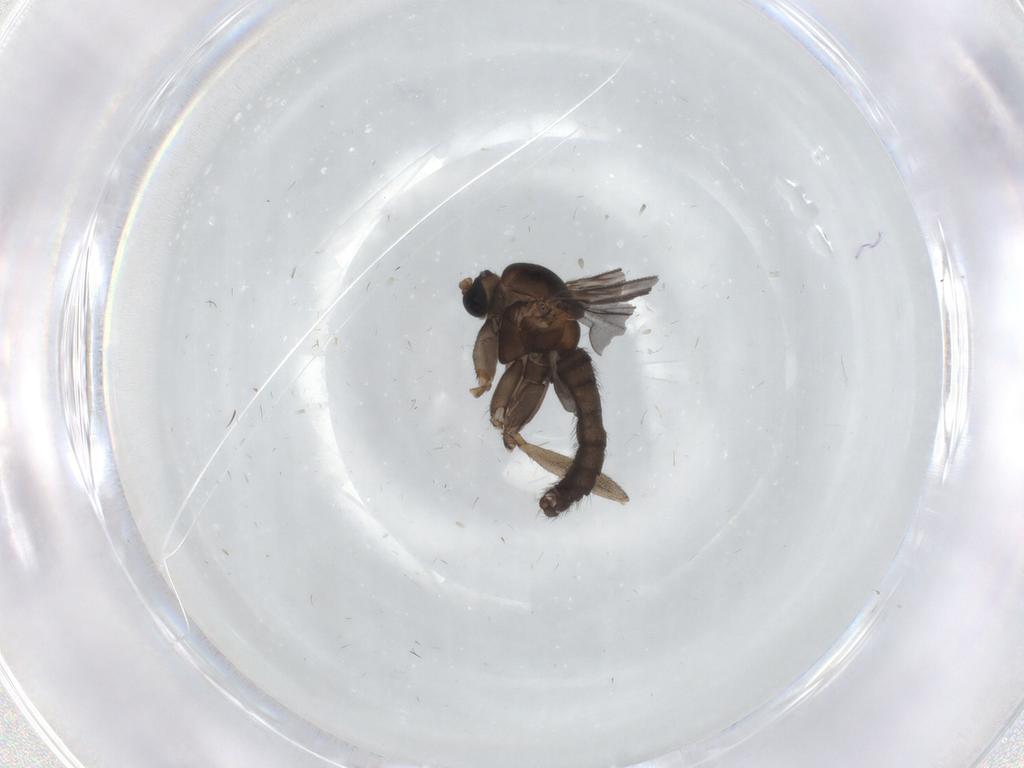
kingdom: Animalia
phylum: Arthropoda
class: Insecta
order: Diptera
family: Sciaridae
